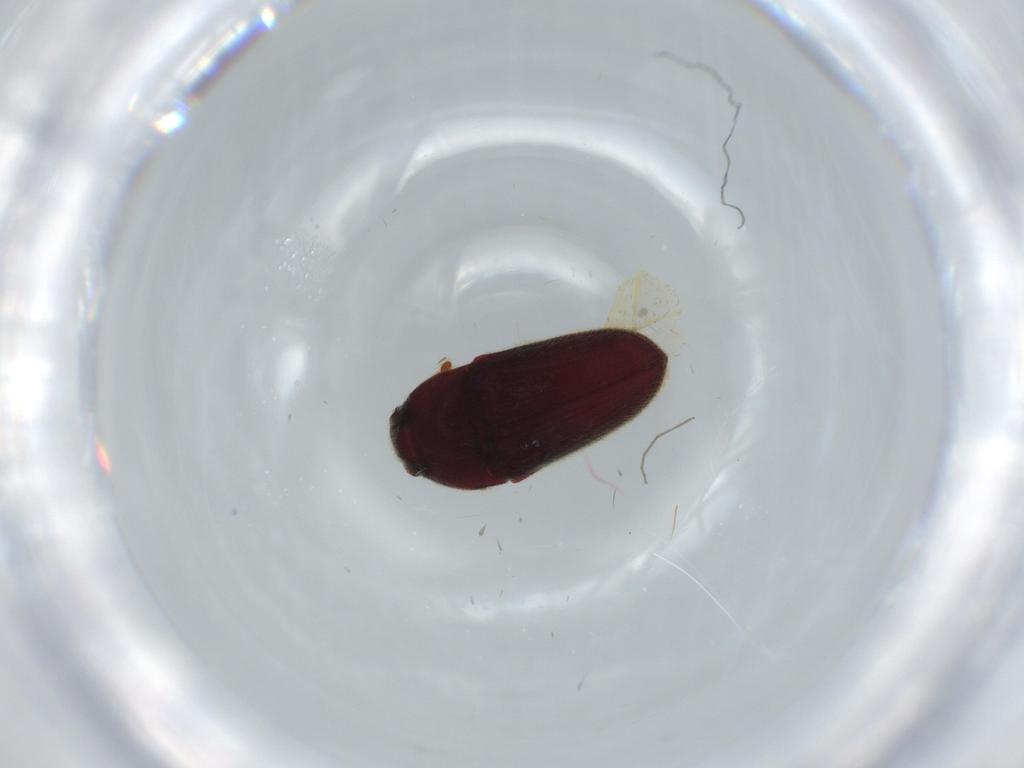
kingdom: Animalia
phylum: Arthropoda
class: Insecta
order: Coleoptera
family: Throscidae
